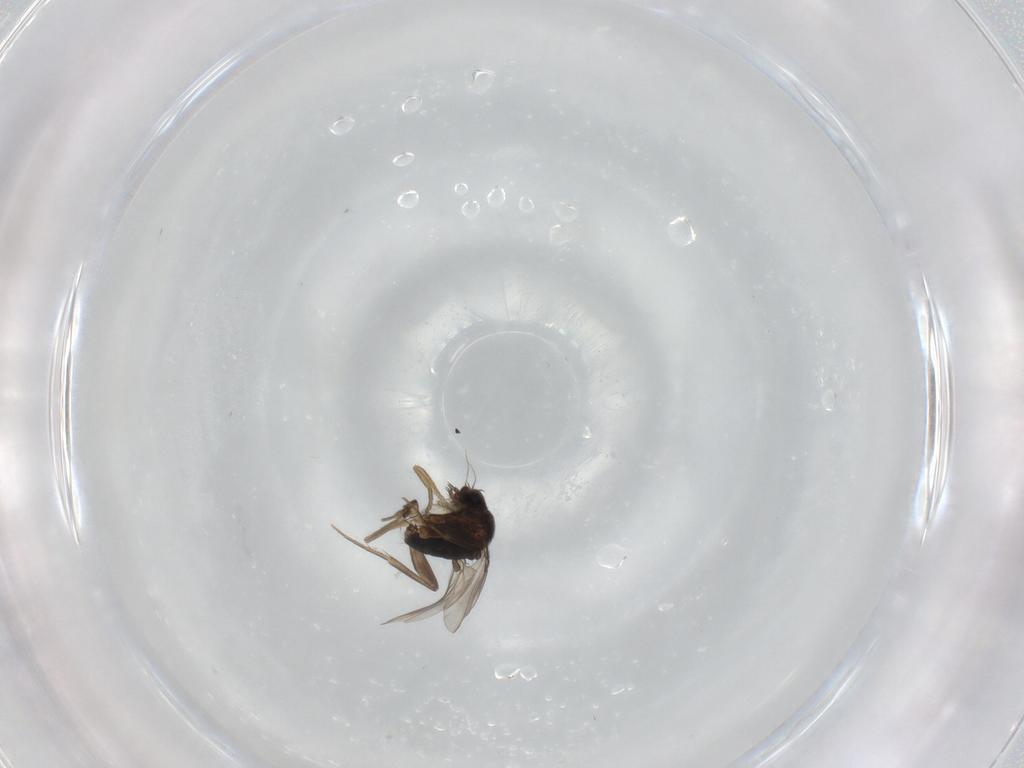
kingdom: Animalia
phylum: Arthropoda
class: Insecta
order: Diptera
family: Phoridae
